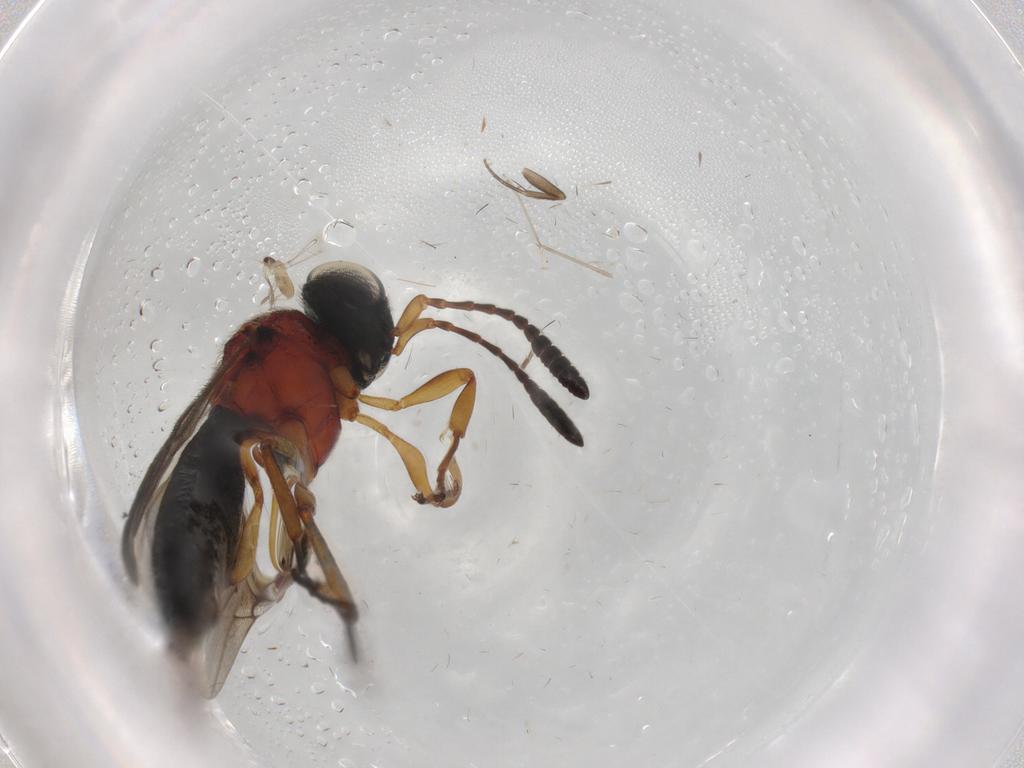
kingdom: Animalia
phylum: Arthropoda
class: Insecta
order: Hymenoptera
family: Scelionidae
